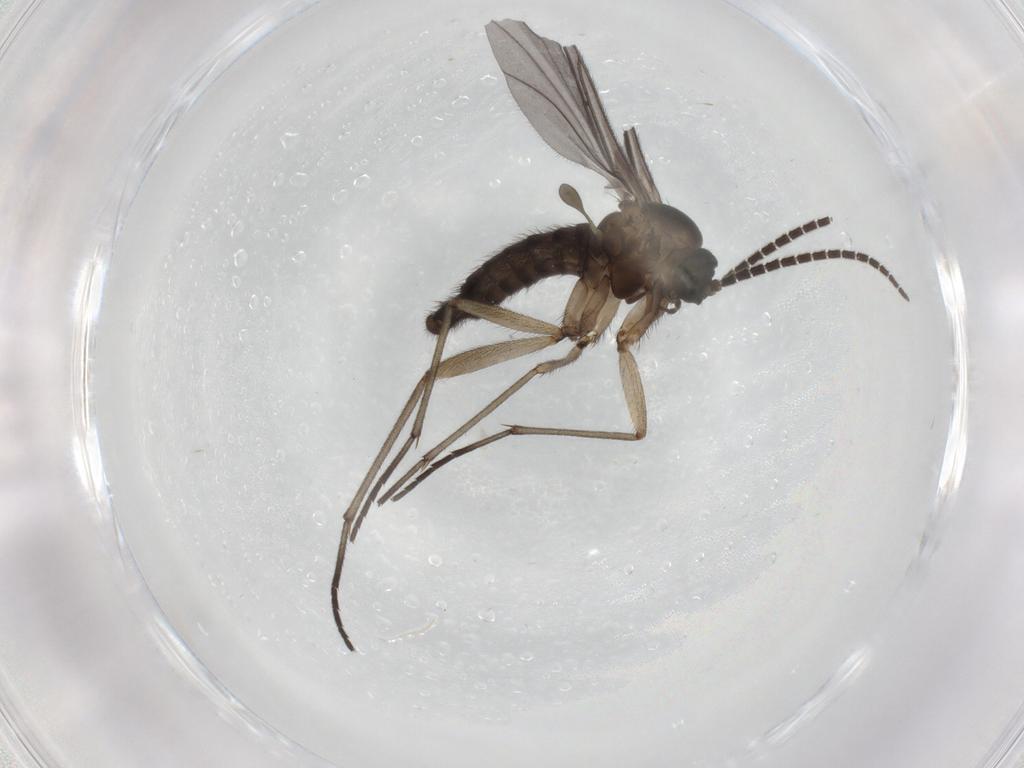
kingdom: Animalia
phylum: Arthropoda
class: Insecta
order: Diptera
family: Sciaridae
